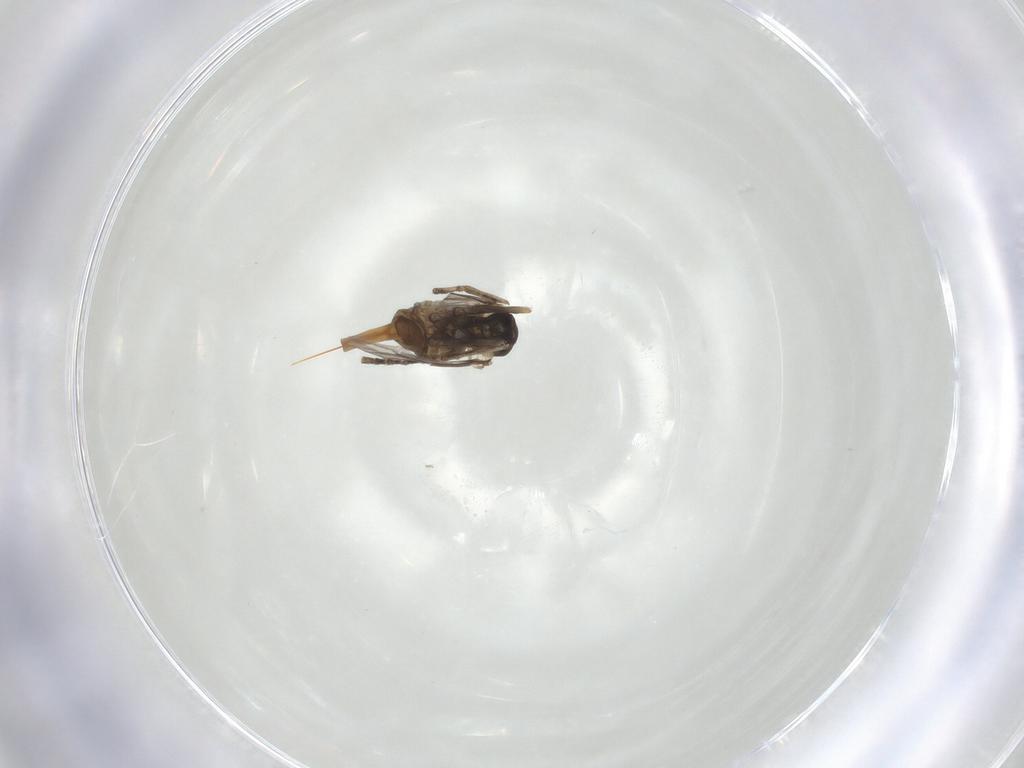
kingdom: Animalia
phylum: Arthropoda
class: Insecta
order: Diptera
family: Cecidomyiidae
